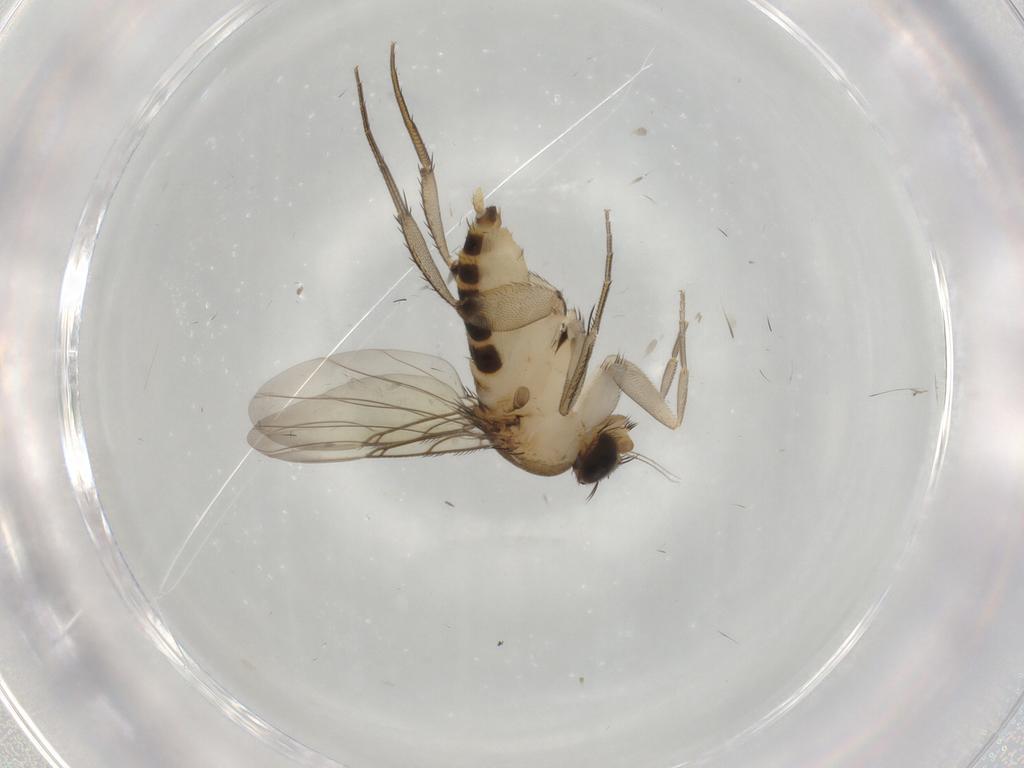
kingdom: Animalia
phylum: Arthropoda
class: Insecta
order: Diptera
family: Phoridae
